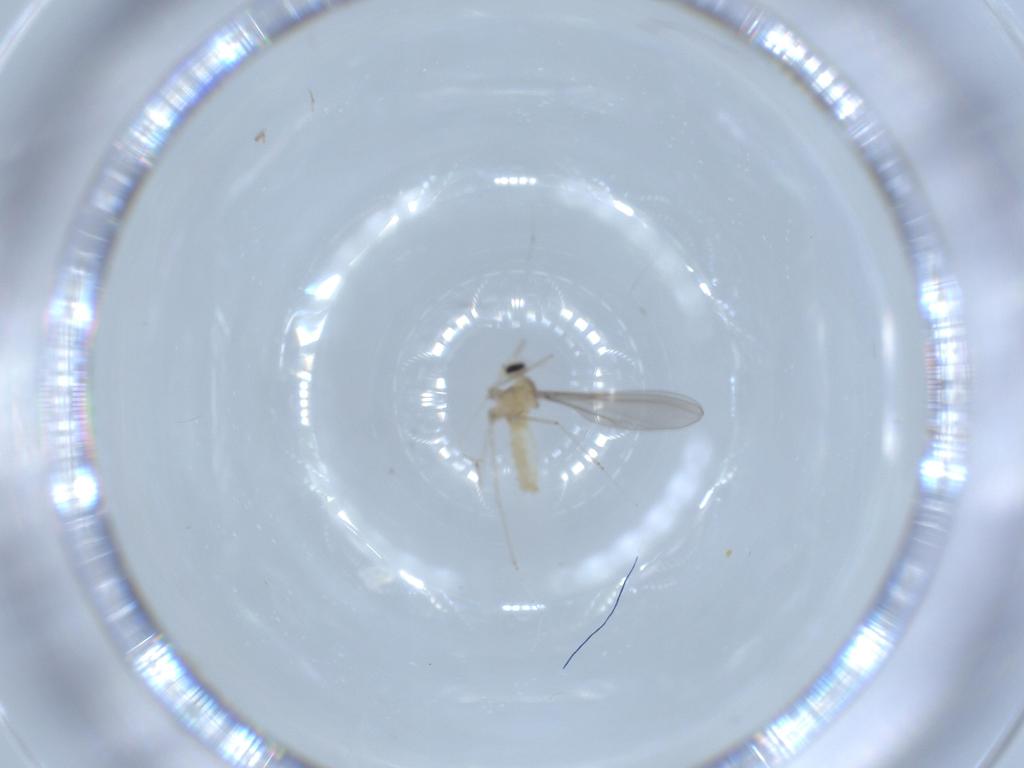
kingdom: Animalia
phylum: Arthropoda
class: Insecta
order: Diptera
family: Cecidomyiidae
